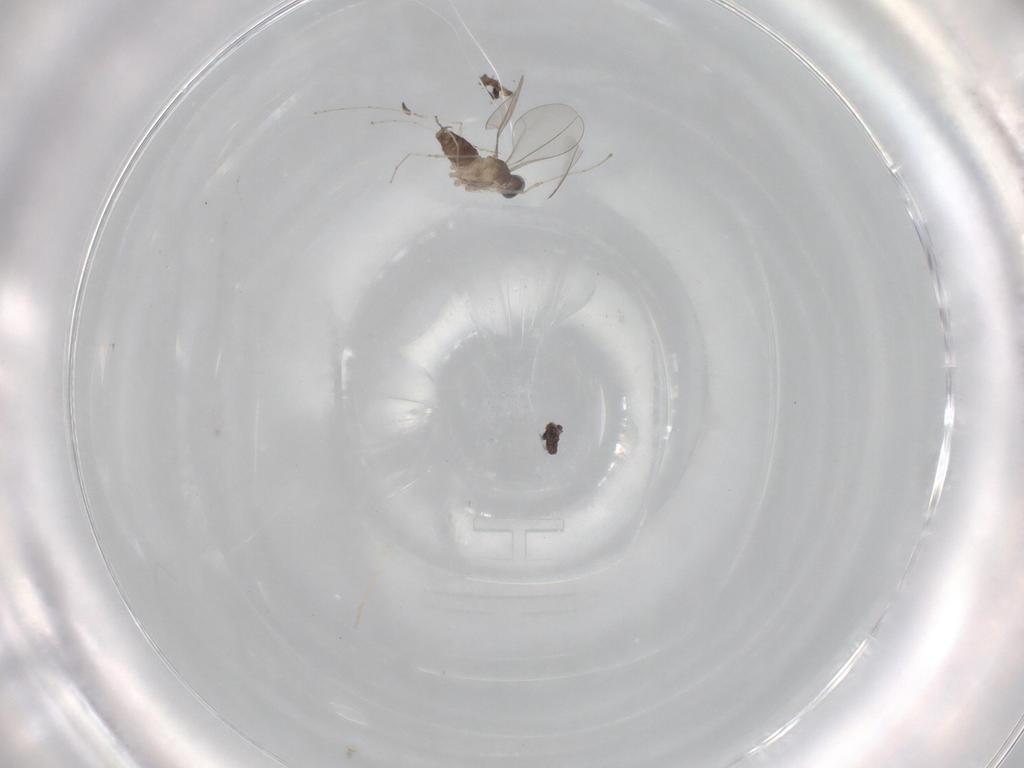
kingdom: Animalia
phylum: Arthropoda
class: Insecta
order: Diptera
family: Cecidomyiidae
